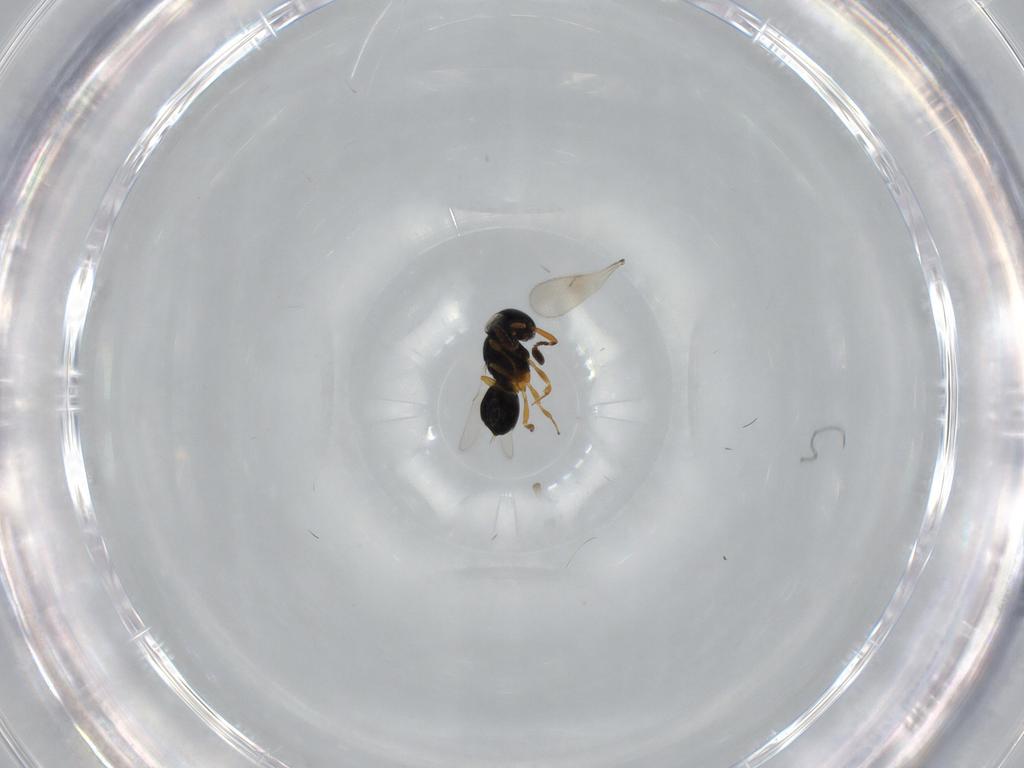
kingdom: Animalia
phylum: Arthropoda
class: Insecta
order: Hymenoptera
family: Scelionidae
